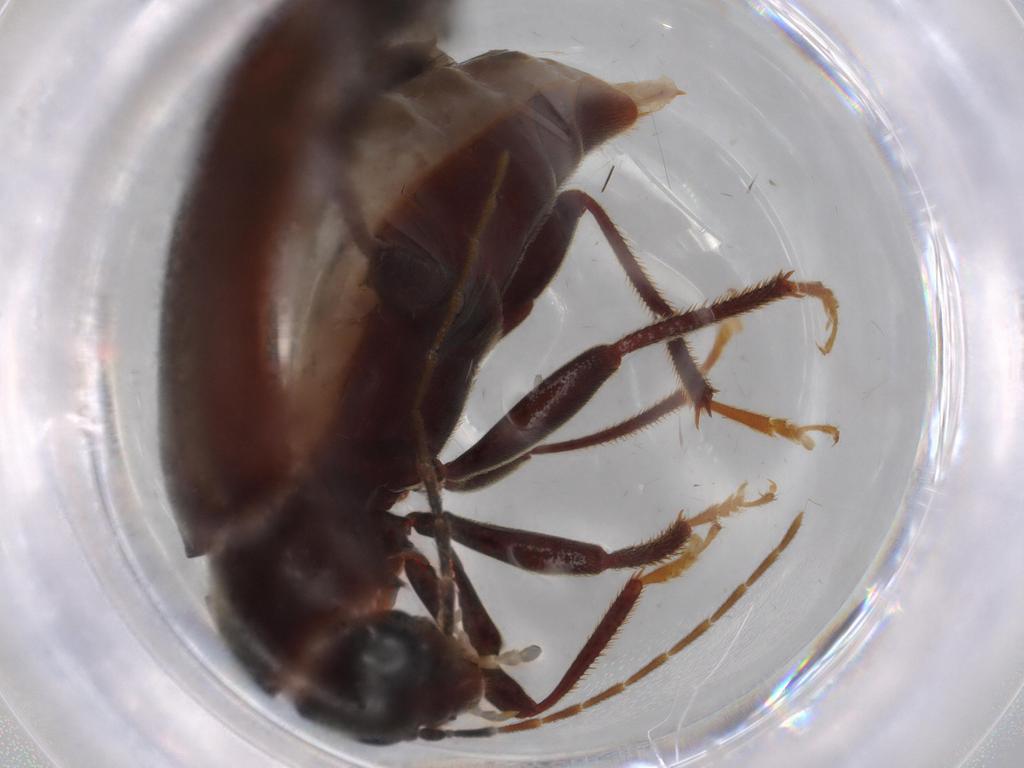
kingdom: Animalia
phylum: Arthropoda
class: Insecta
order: Coleoptera
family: Ptilodactylidae
